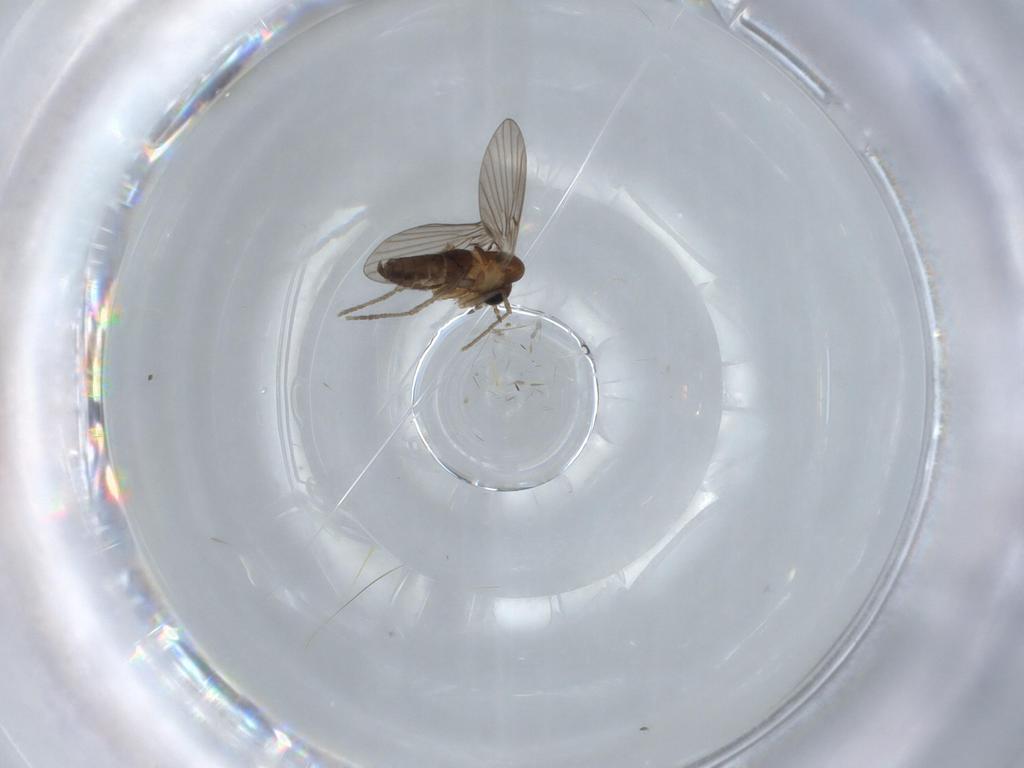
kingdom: Animalia
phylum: Arthropoda
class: Insecta
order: Diptera
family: Psychodidae
